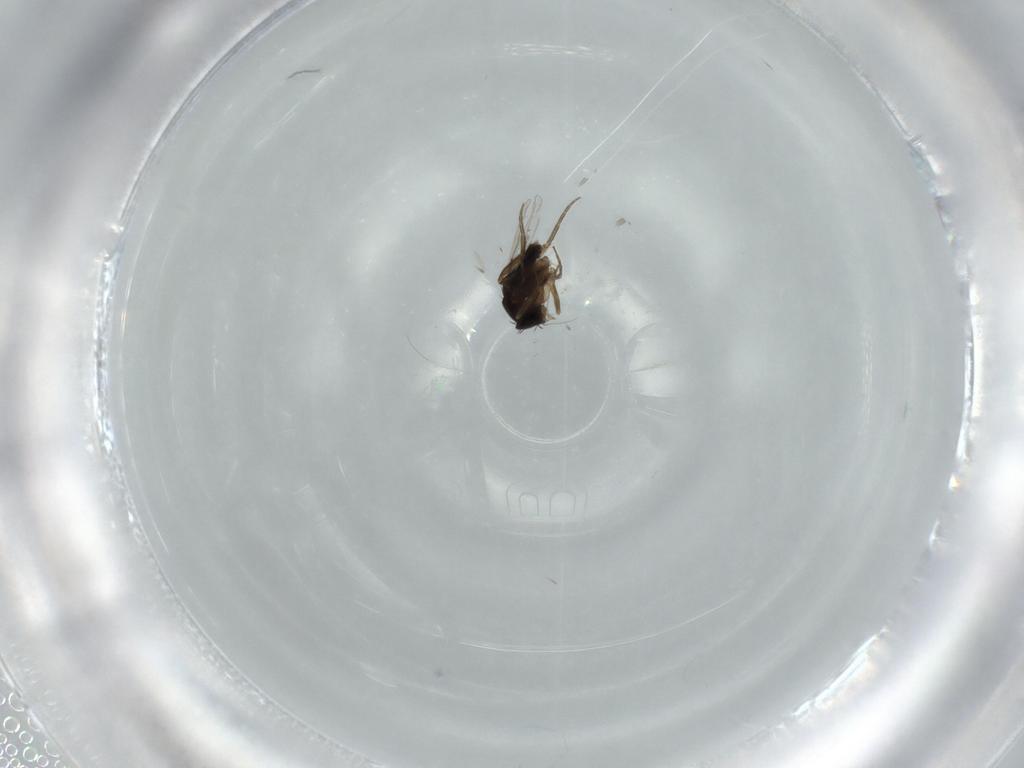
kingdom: Animalia
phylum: Arthropoda
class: Insecta
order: Diptera
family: Phoridae
